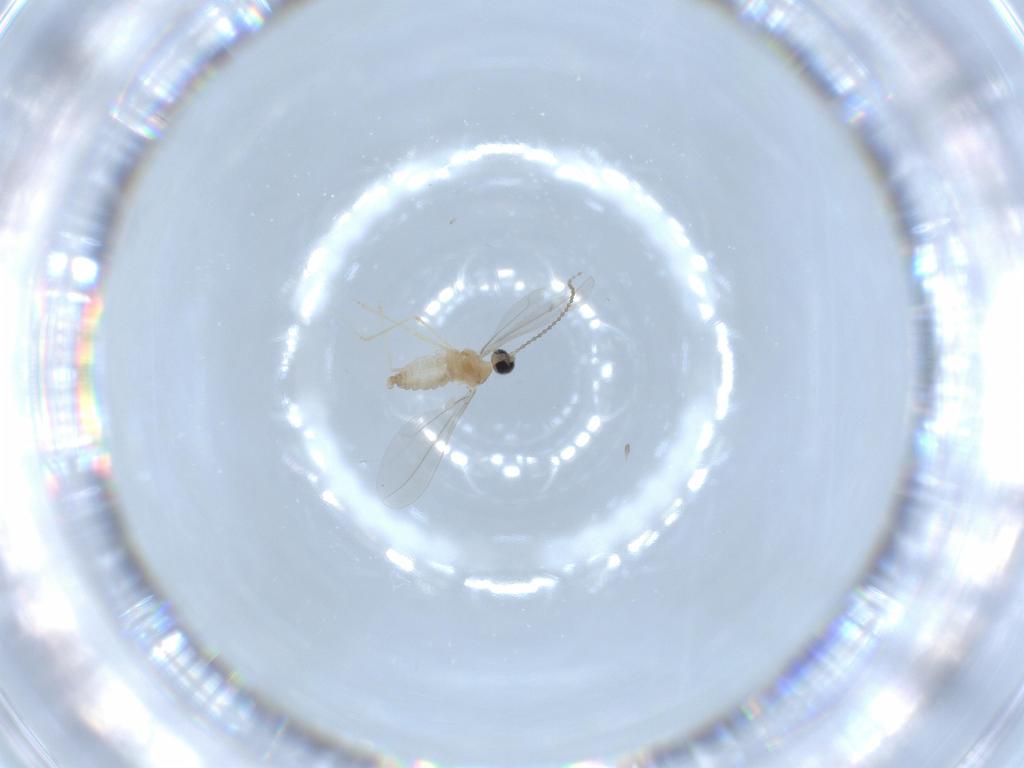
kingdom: Animalia
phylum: Arthropoda
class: Insecta
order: Diptera
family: Cecidomyiidae
